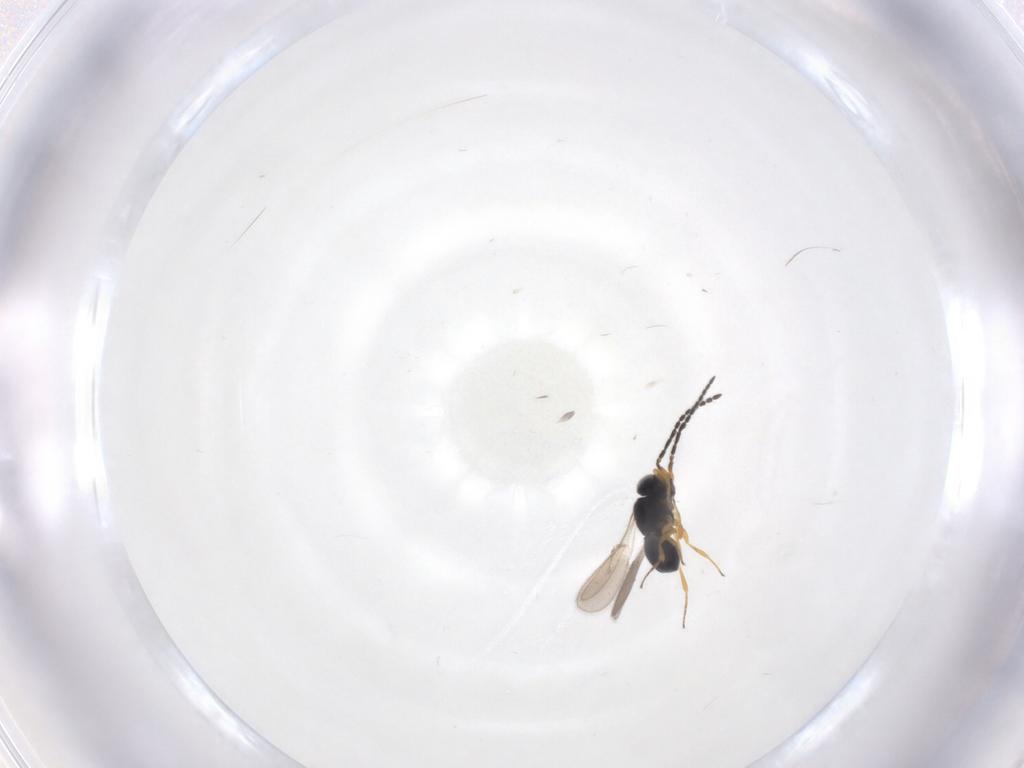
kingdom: Animalia
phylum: Arthropoda
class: Insecta
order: Hymenoptera
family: Scelionidae
